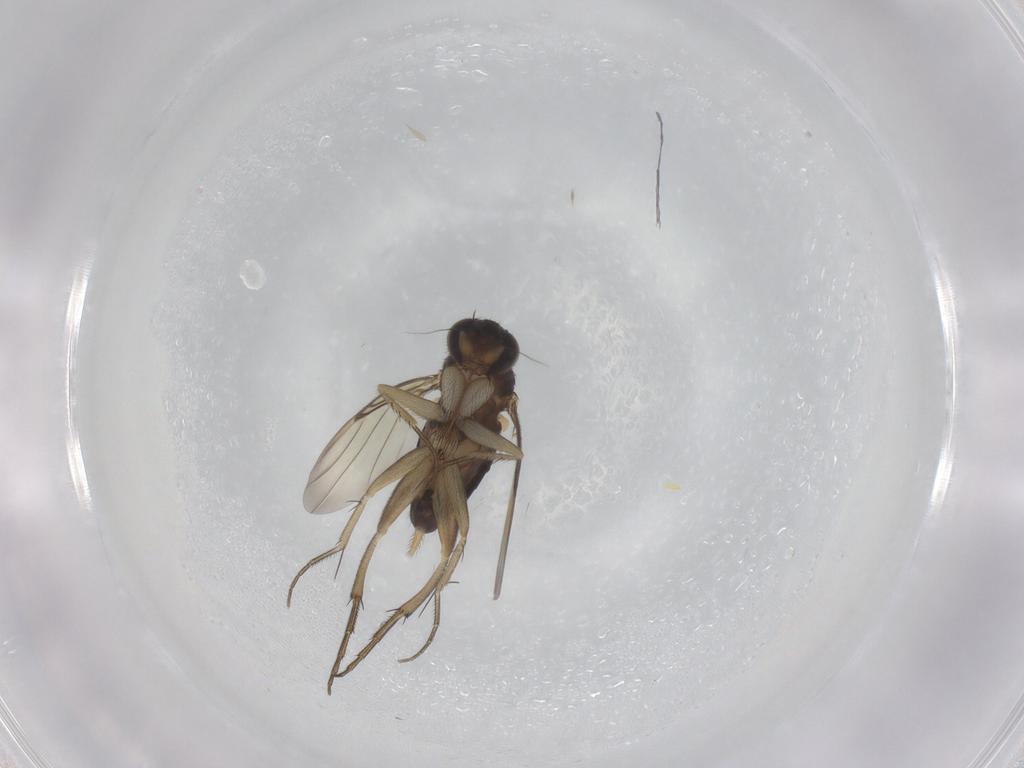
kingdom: Animalia
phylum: Arthropoda
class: Insecta
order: Diptera
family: Phoridae
